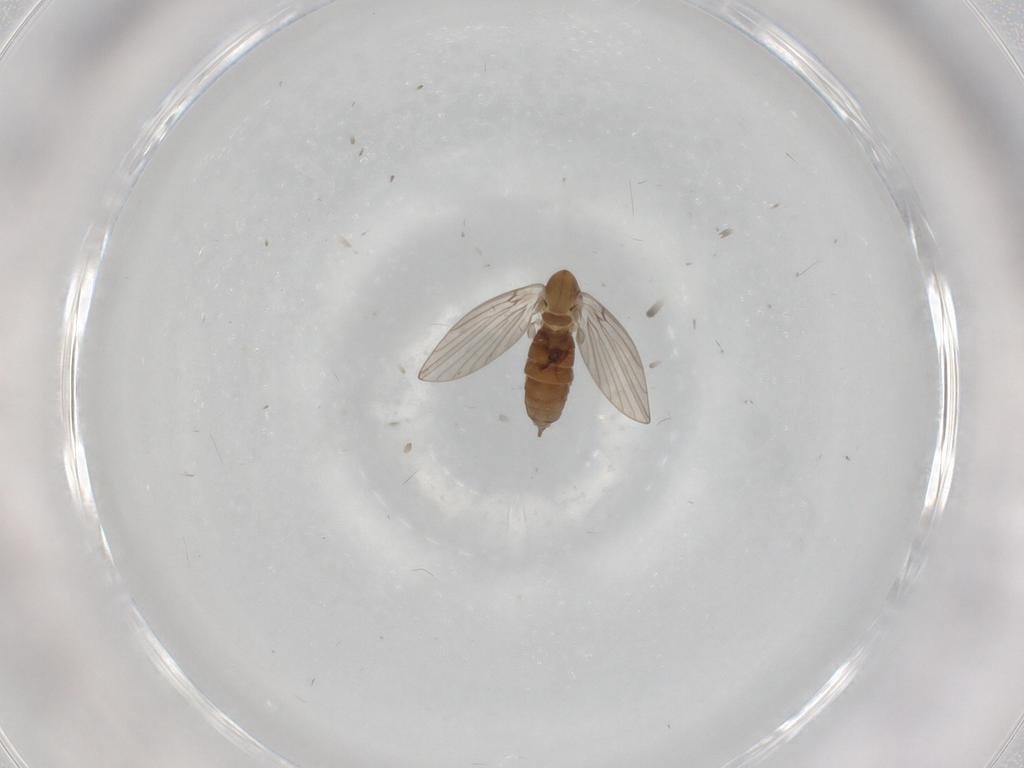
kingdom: Animalia
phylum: Arthropoda
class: Insecta
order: Diptera
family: Psychodidae
